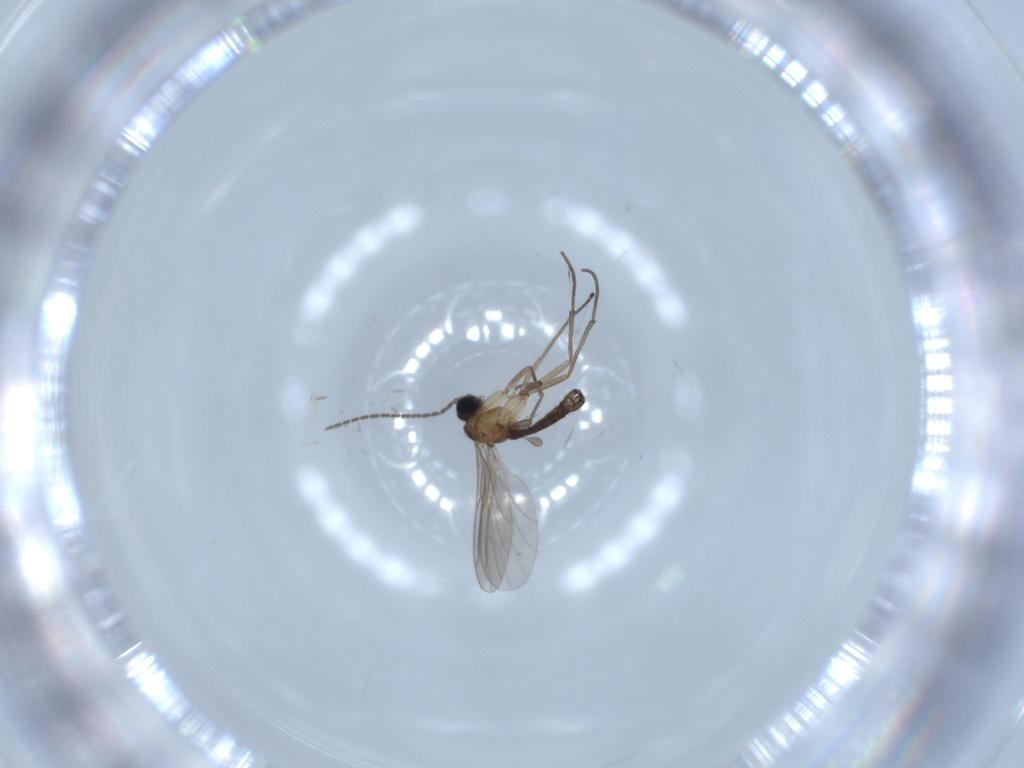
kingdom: Animalia
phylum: Arthropoda
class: Insecta
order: Diptera
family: Sciaridae
